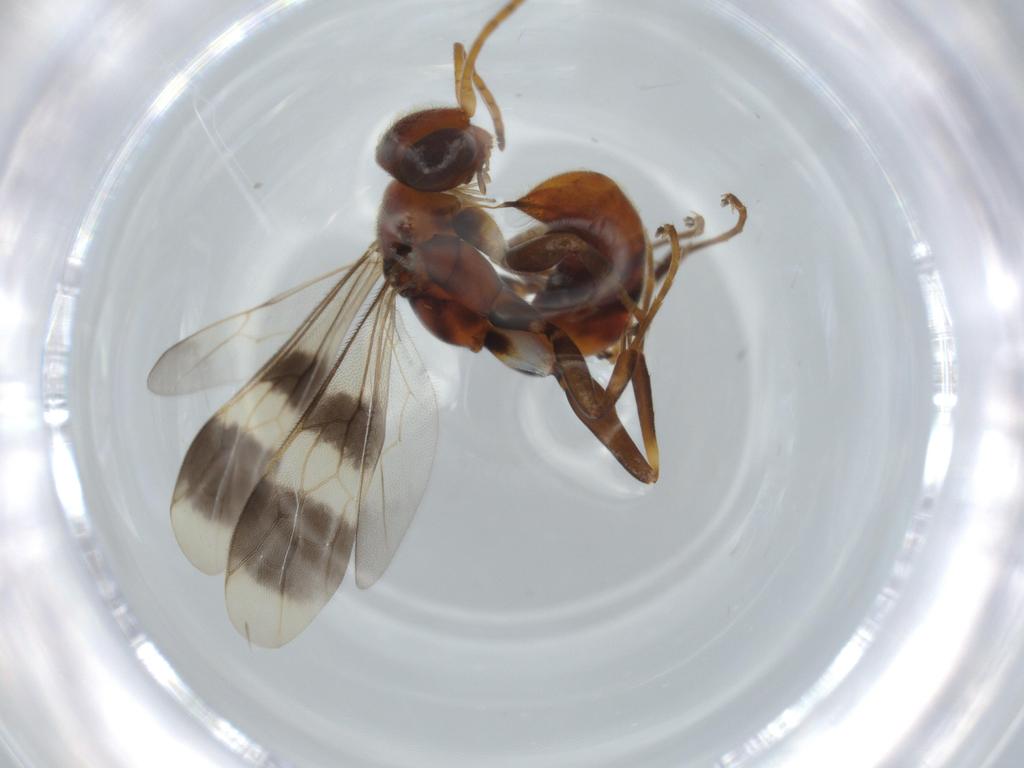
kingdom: Animalia
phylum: Arthropoda
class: Insecta
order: Hymenoptera
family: Pompilidae
